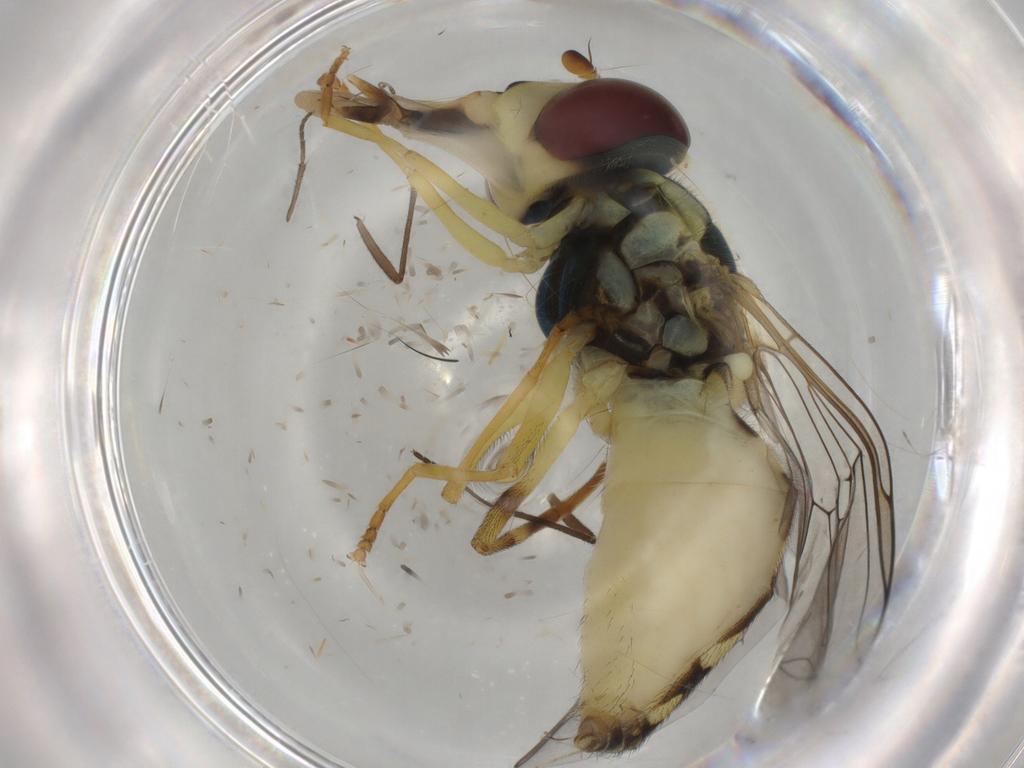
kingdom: Animalia
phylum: Arthropoda
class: Insecta
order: Diptera
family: Syrphidae
